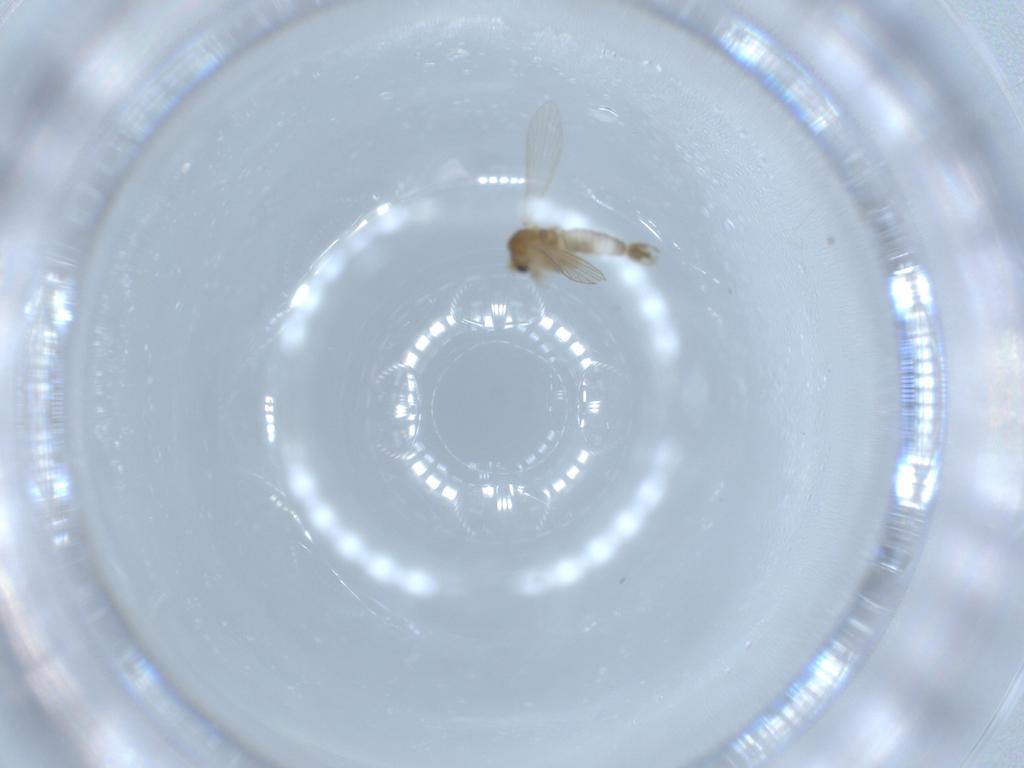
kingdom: Animalia
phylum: Arthropoda
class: Insecta
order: Diptera
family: Psychodidae
